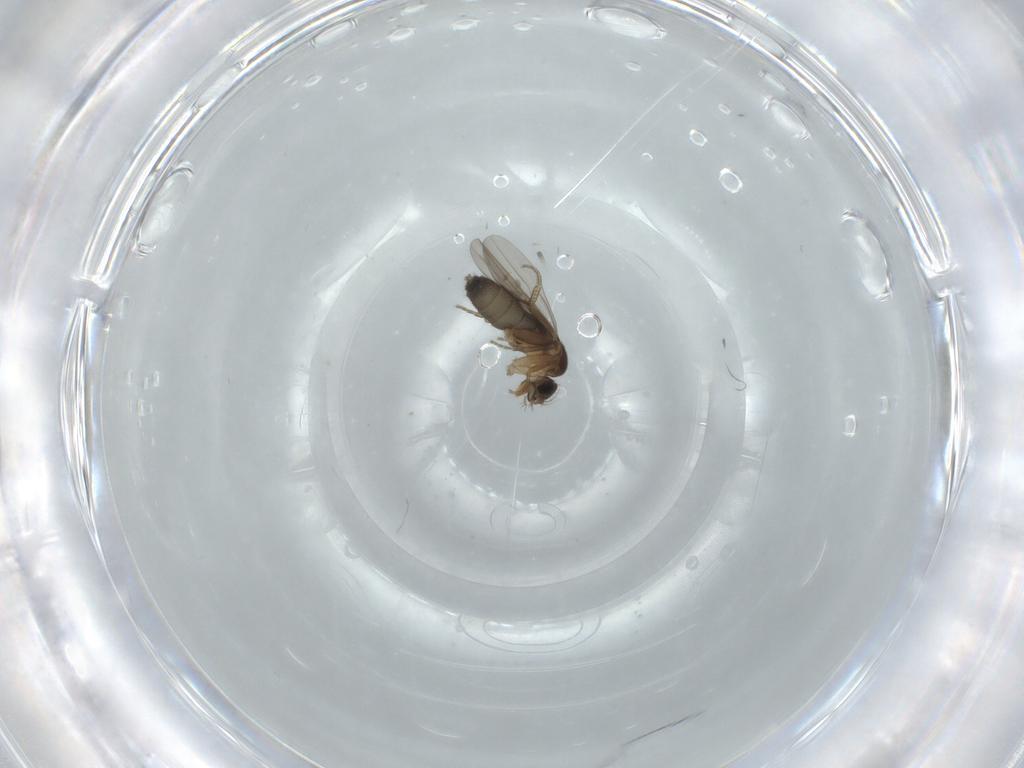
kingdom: Animalia
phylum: Arthropoda
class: Insecta
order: Diptera
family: Phoridae
